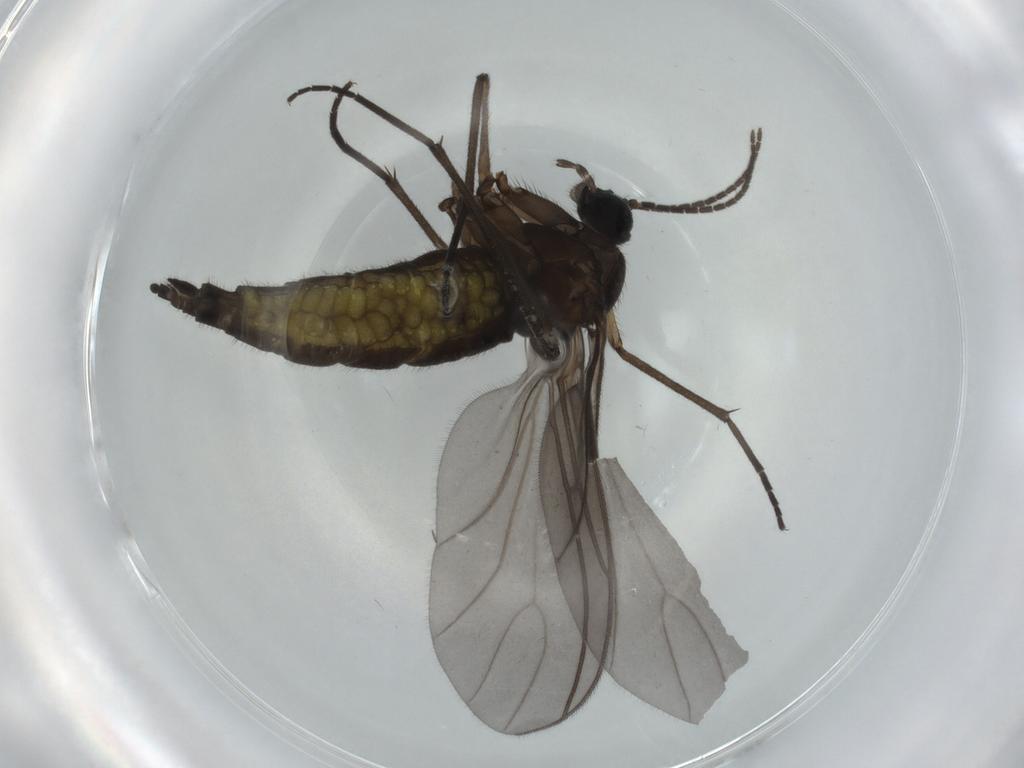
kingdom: Animalia
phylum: Arthropoda
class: Insecta
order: Diptera
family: Sciaridae
